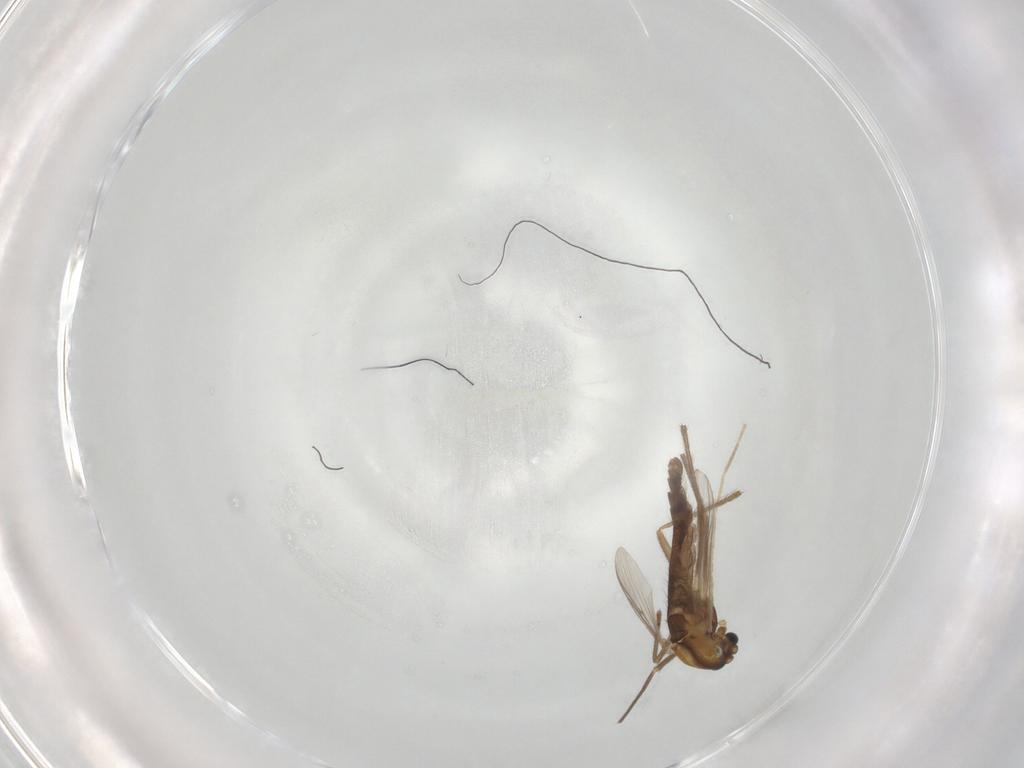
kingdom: Animalia
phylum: Arthropoda
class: Insecta
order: Diptera
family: Chironomidae
